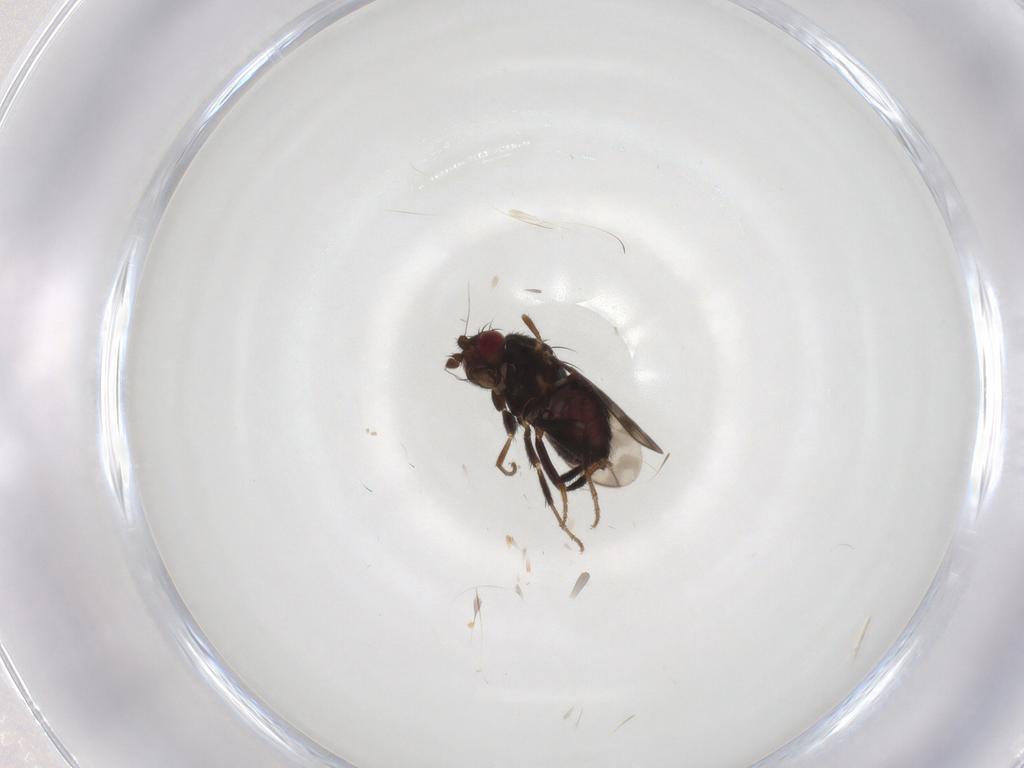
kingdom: Animalia
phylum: Arthropoda
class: Insecta
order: Diptera
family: Sphaeroceridae
